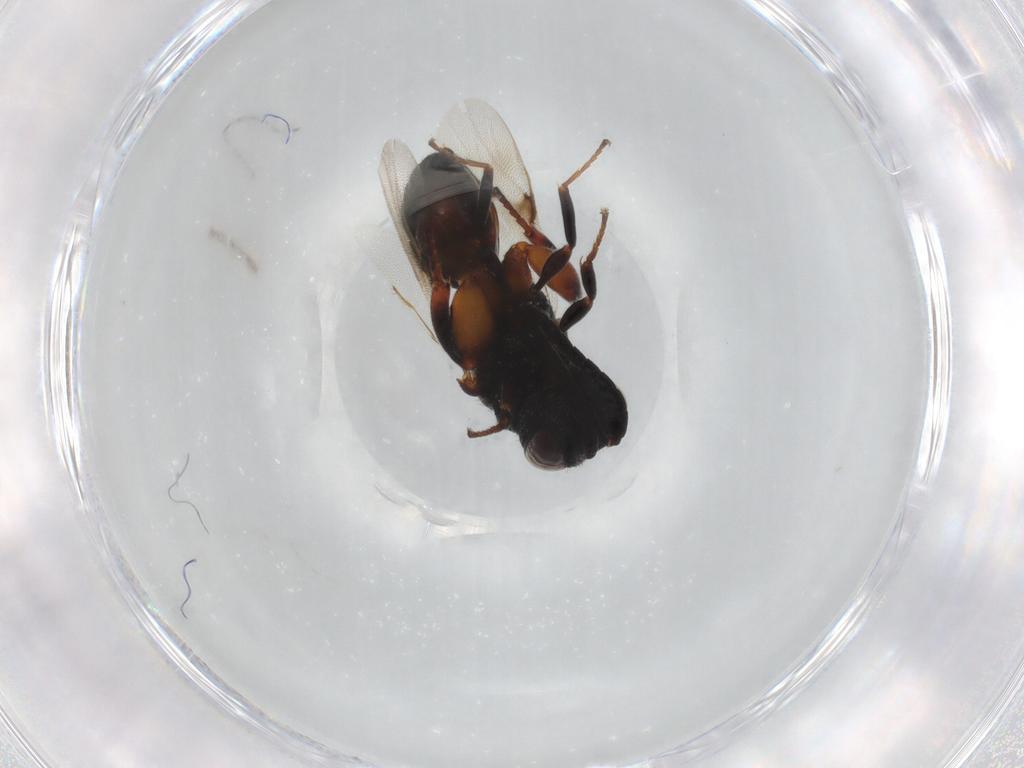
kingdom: Animalia
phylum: Arthropoda
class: Insecta
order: Hymenoptera
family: Chalcididae
